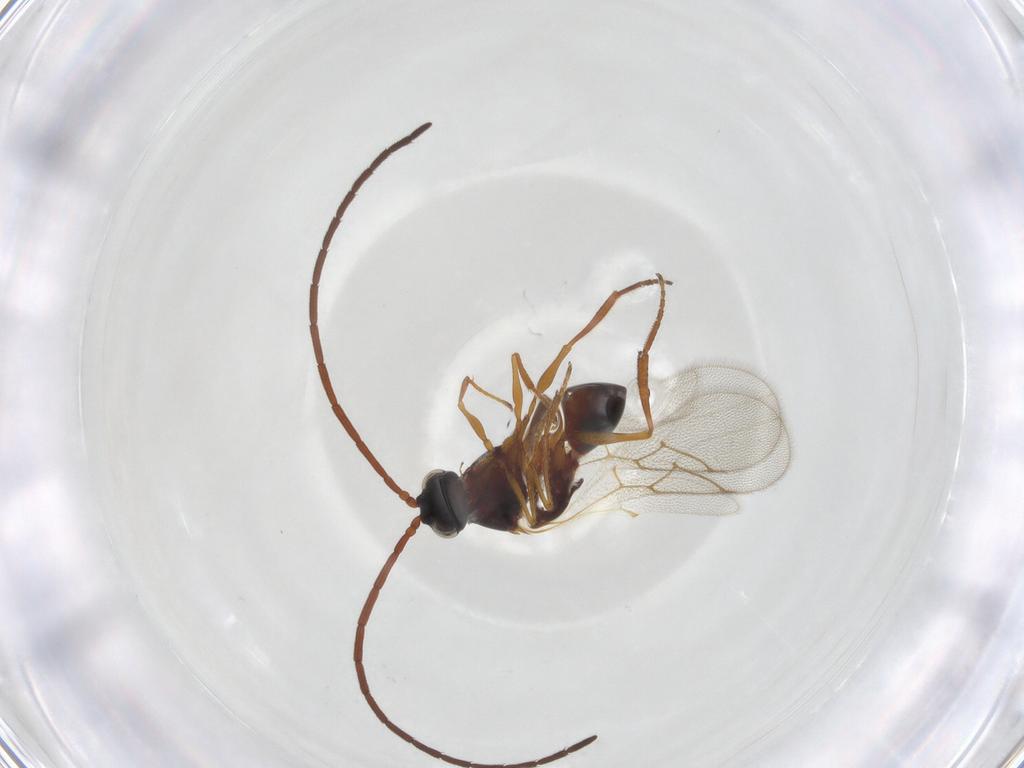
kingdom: Animalia
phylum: Arthropoda
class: Insecta
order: Hymenoptera
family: Figitidae
